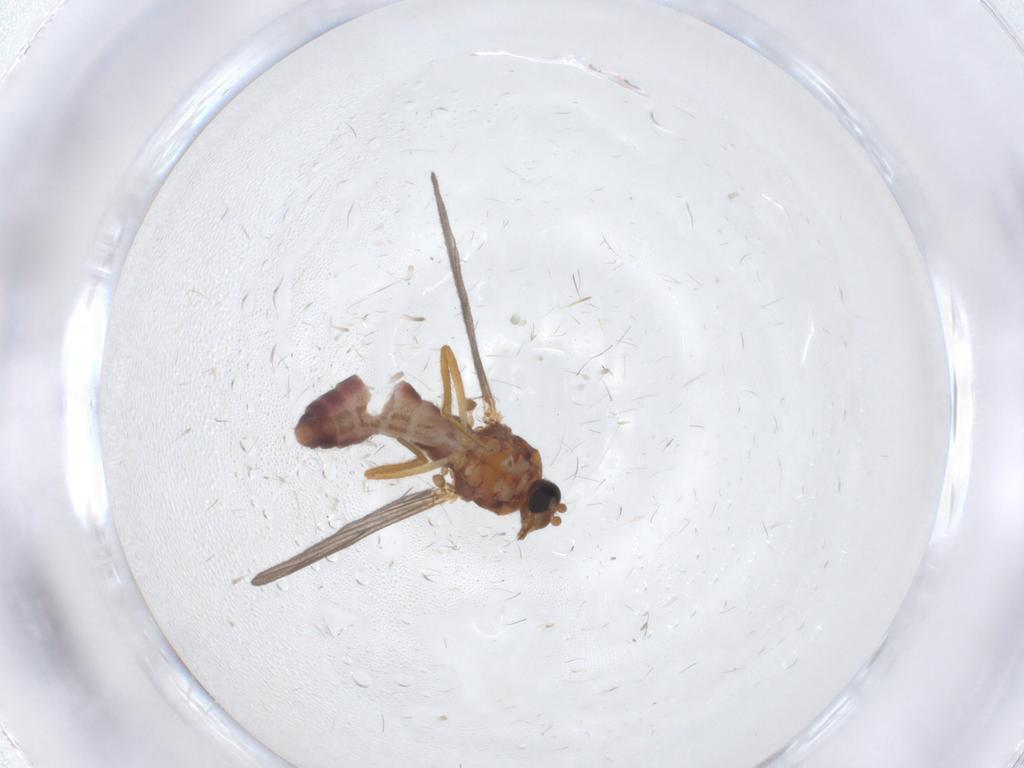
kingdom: Animalia
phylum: Arthropoda
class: Insecta
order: Diptera
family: Ceratopogonidae
